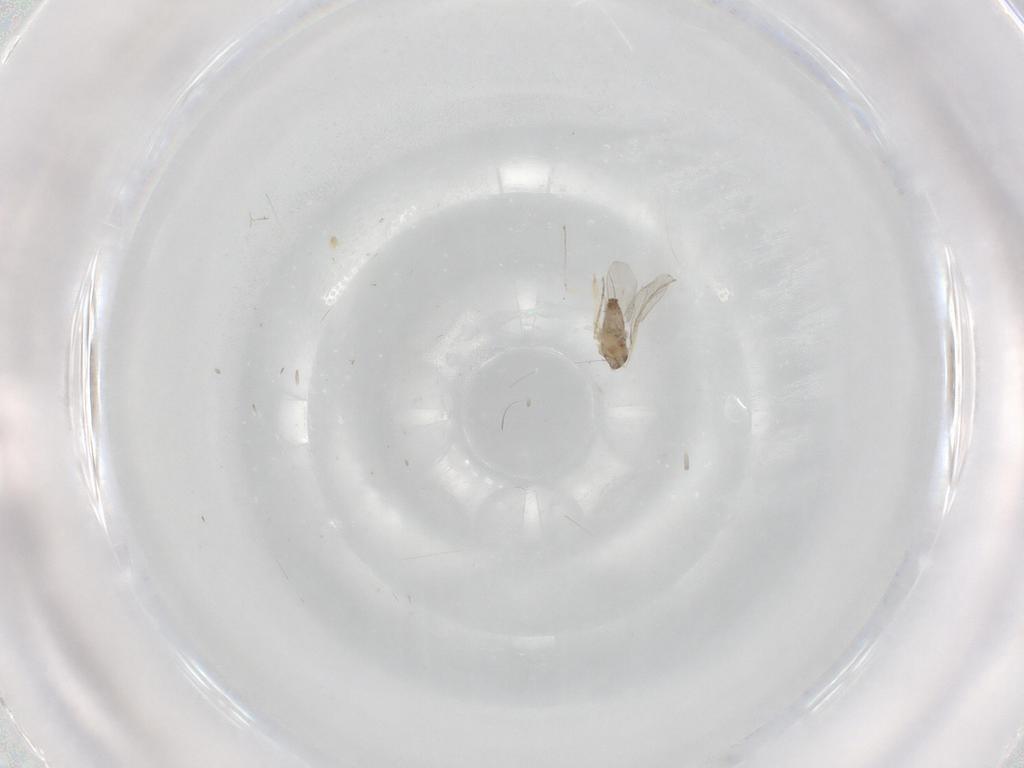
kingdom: Animalia
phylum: Arthropoda
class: Insecta
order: Diptera
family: Cecidomyiidae
